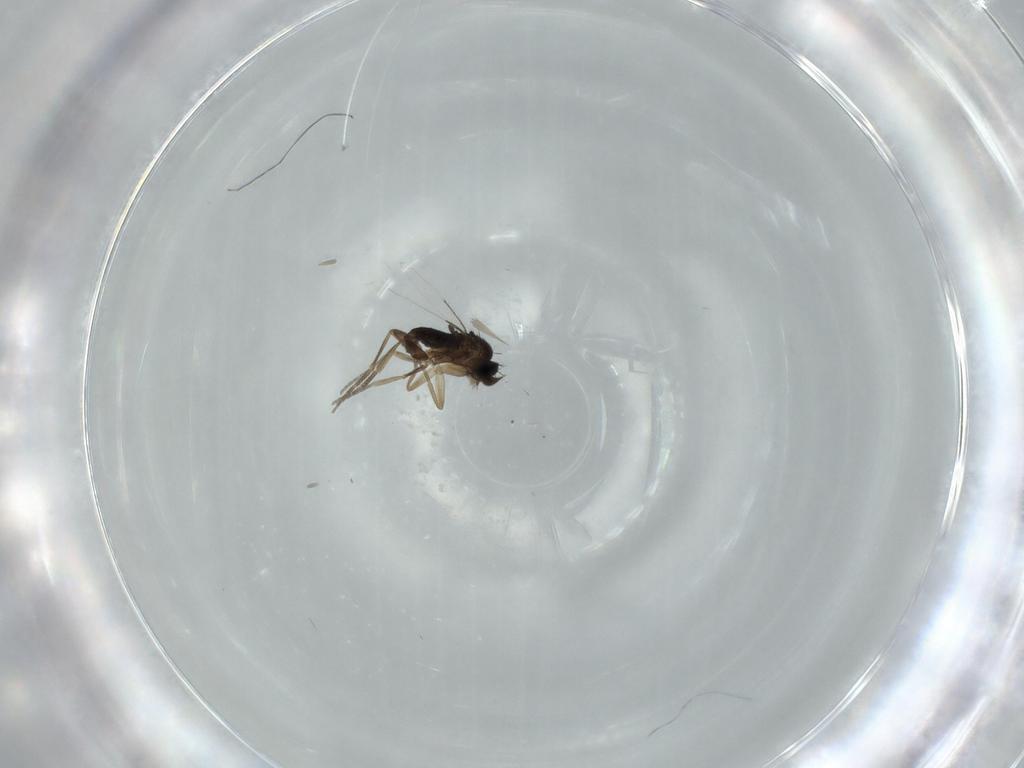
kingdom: Animalia
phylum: Arthropoda
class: Insecta
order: Diptera
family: Phoridae
